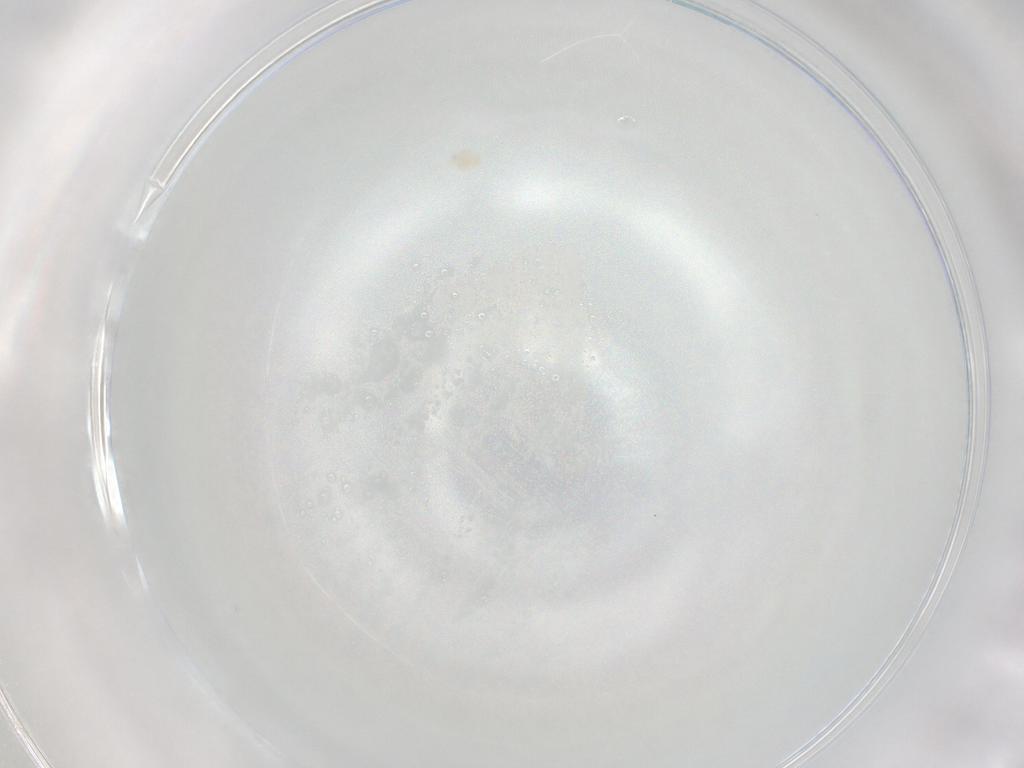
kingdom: Animalia
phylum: Arthropoda
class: Arachnida
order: Trombidiformes
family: Eupodidae
